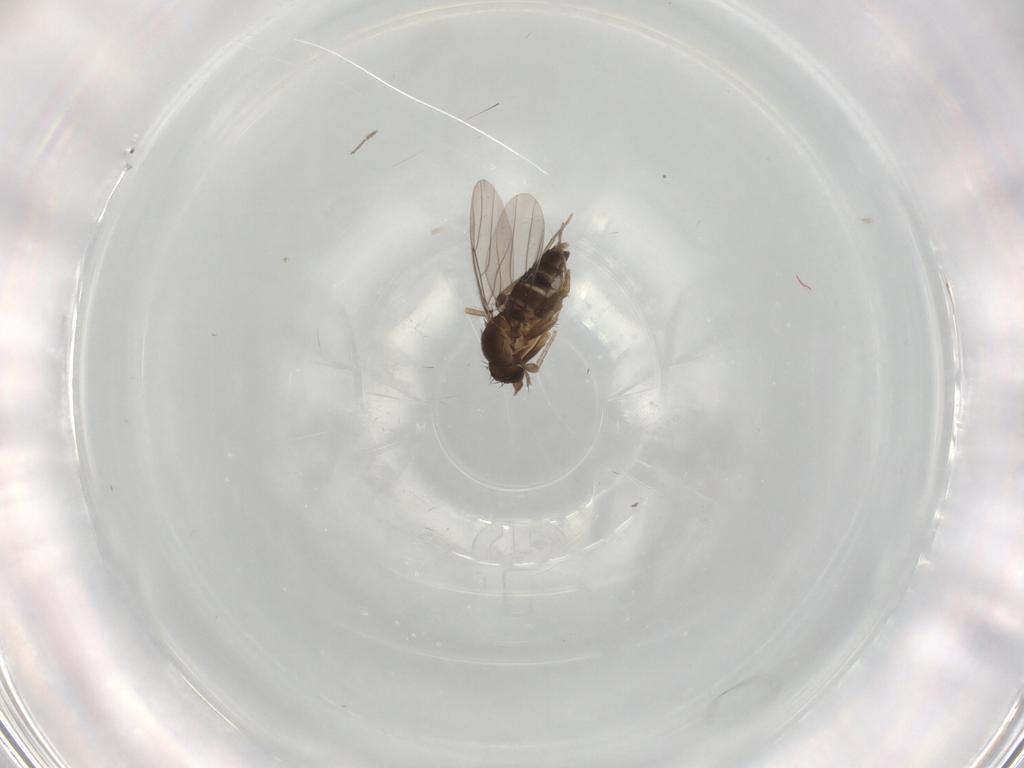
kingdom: Animalia
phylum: Arthropoda
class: Insecta
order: Diptera
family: Phoridae
